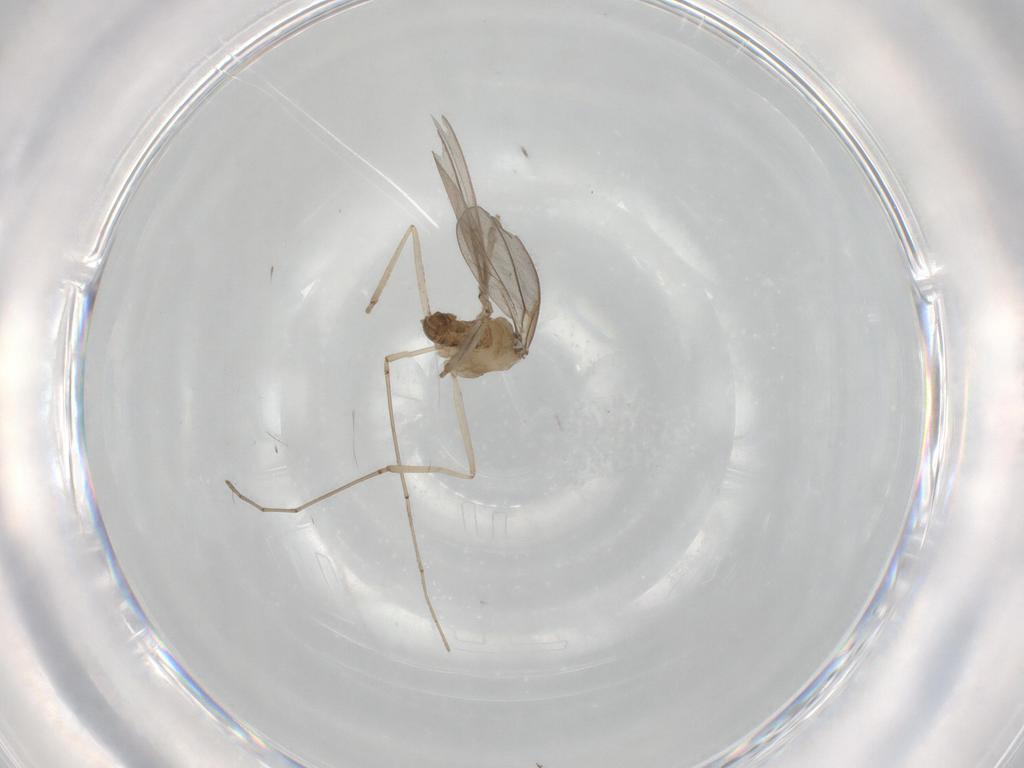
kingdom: Animalia
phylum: Arthropoda
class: Insecta
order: Diptera
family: Cecidomyiidae
